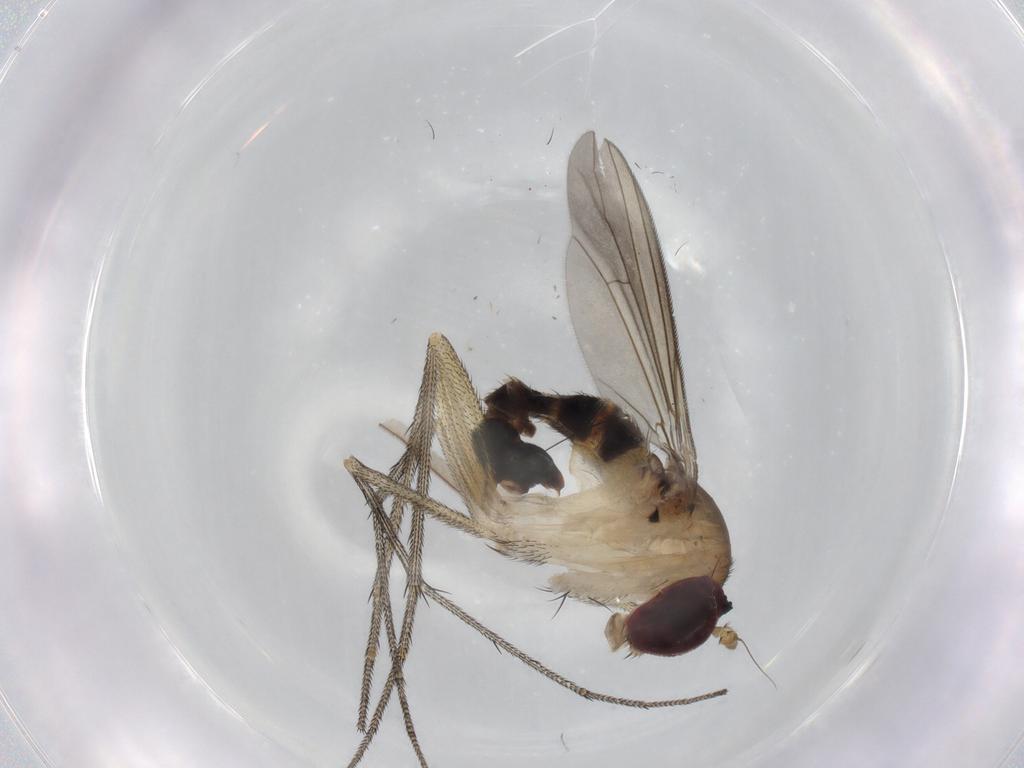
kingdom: Animalia
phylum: Arthropoda
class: Insecta
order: Diptera
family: Dolichopodidae
